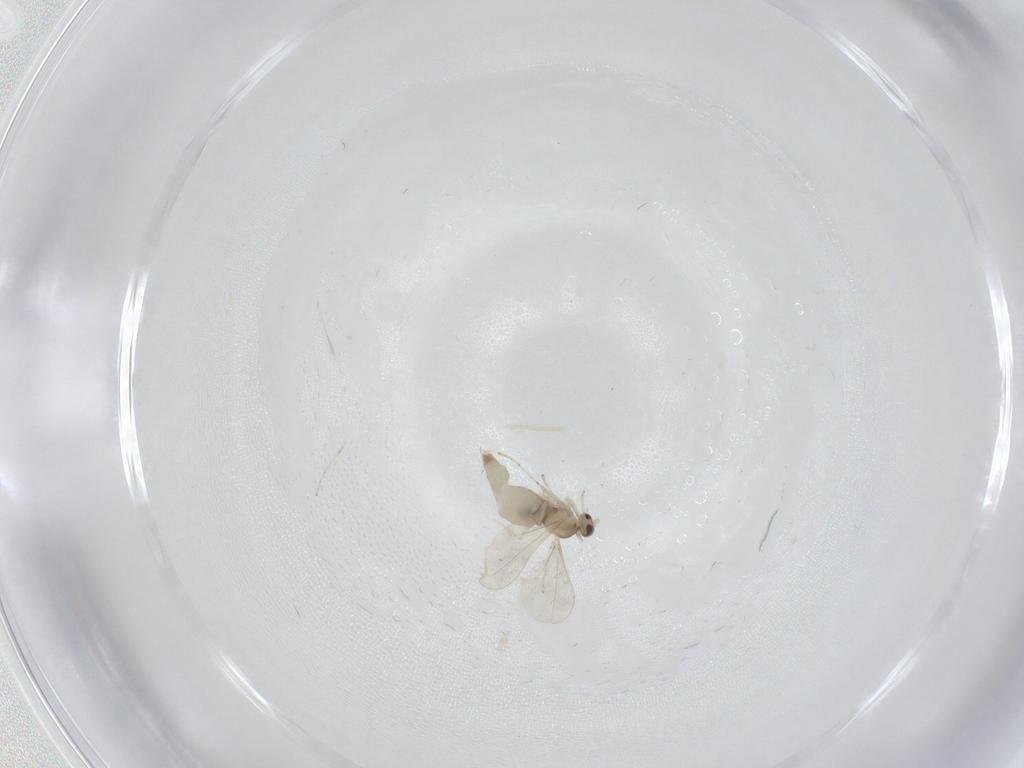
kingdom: Animalia
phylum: Arthropoda
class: Insecta
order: Diptera
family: Cecidomyiidae
